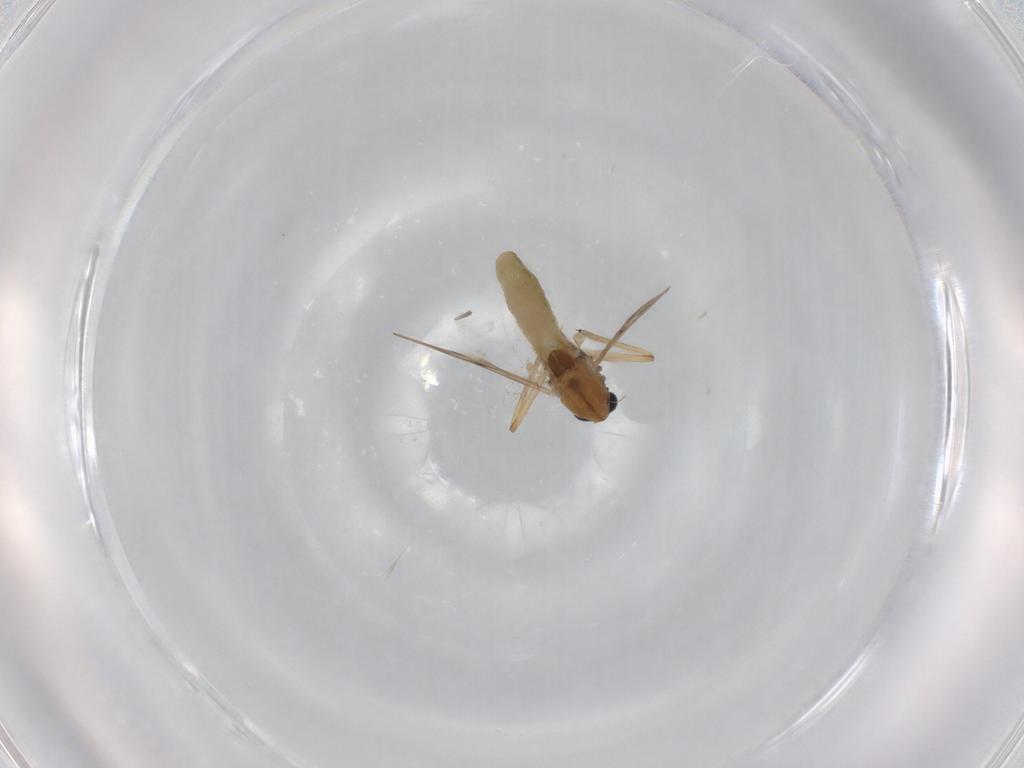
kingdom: Animalia
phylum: Arthropoda
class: Insecta
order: Diptera
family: Chironomidae
